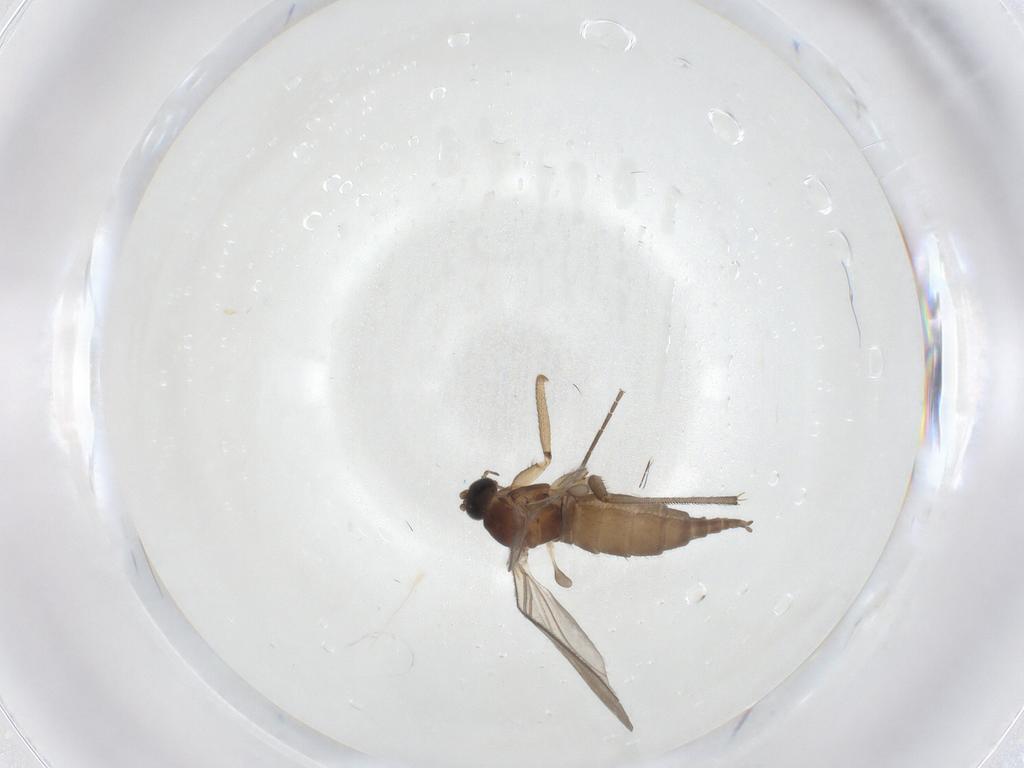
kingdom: Animalia
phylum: Arthropoda
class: Insecta
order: Diptera
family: Sciaridae
